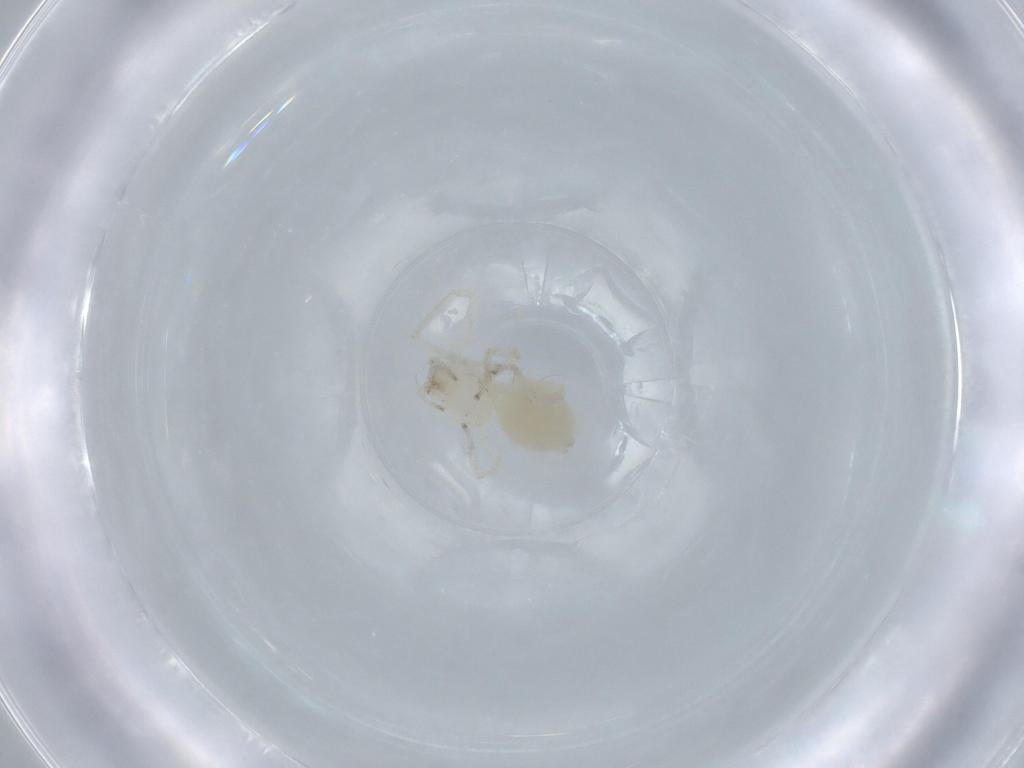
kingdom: Animalia
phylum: Arthropoda
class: Arachnida
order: Araneae
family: Anyphaenidae
